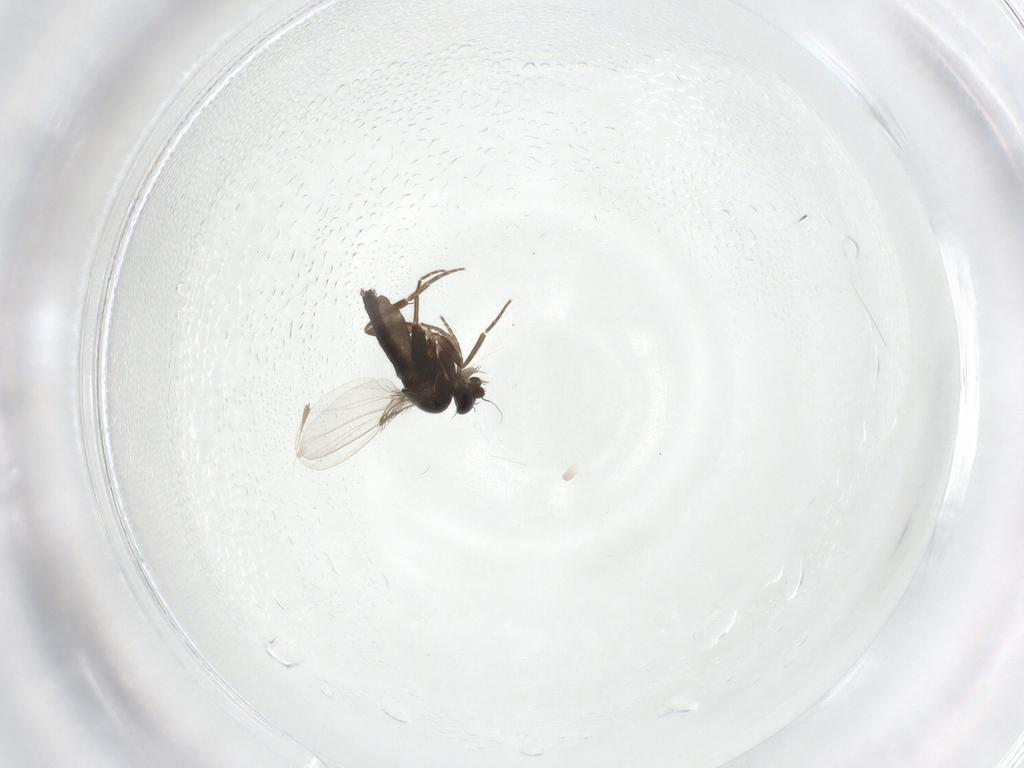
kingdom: Animalia
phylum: Arthropoda
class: Insecta
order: Diptera
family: Phoridae
